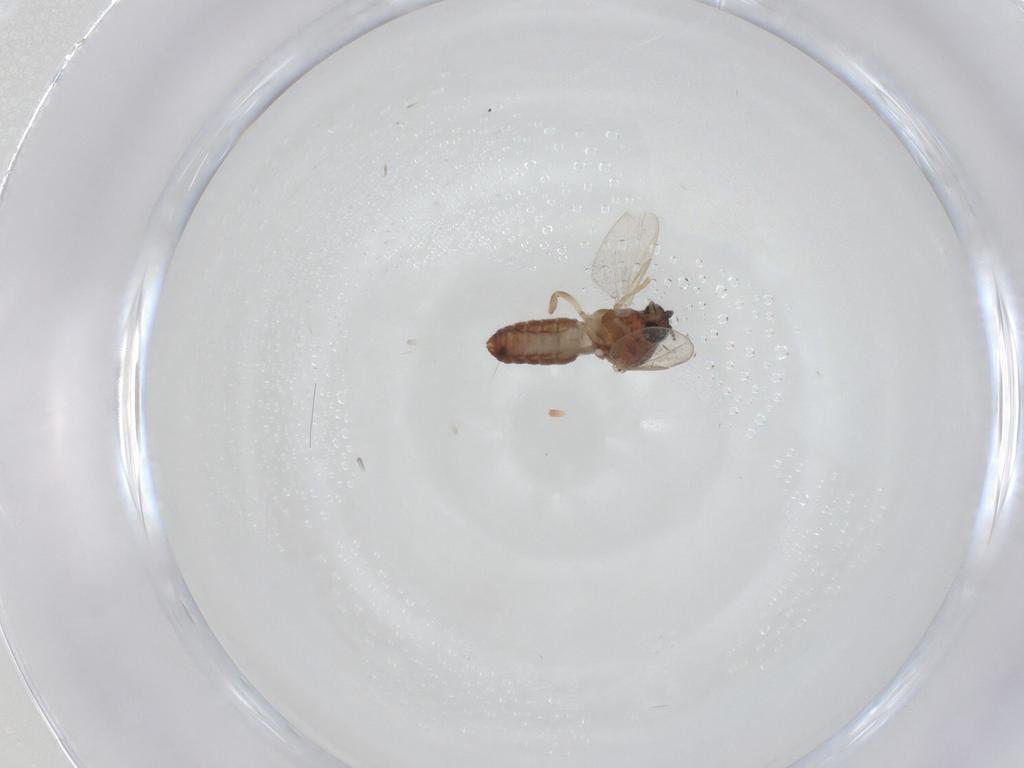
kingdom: Animalia
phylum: Arthropoda
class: Insecta
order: Diptera
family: Ceratopogonidae
